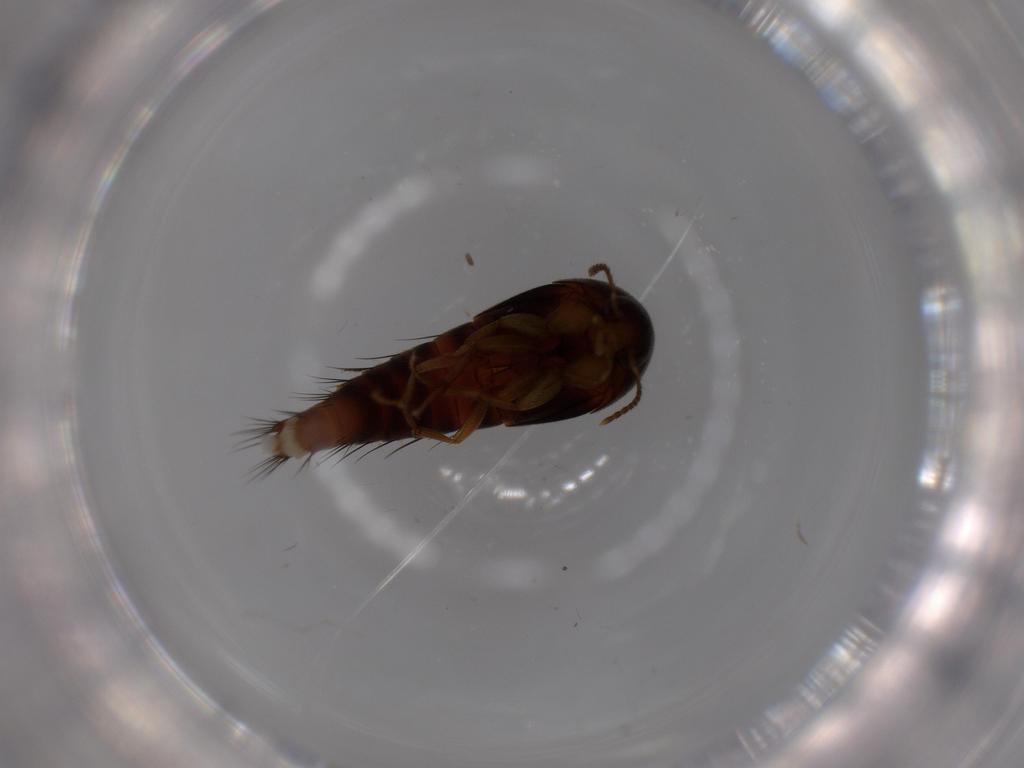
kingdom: Animalia
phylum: Arthropoda
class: Insecta
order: Coleoptera
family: Staphylinidae
